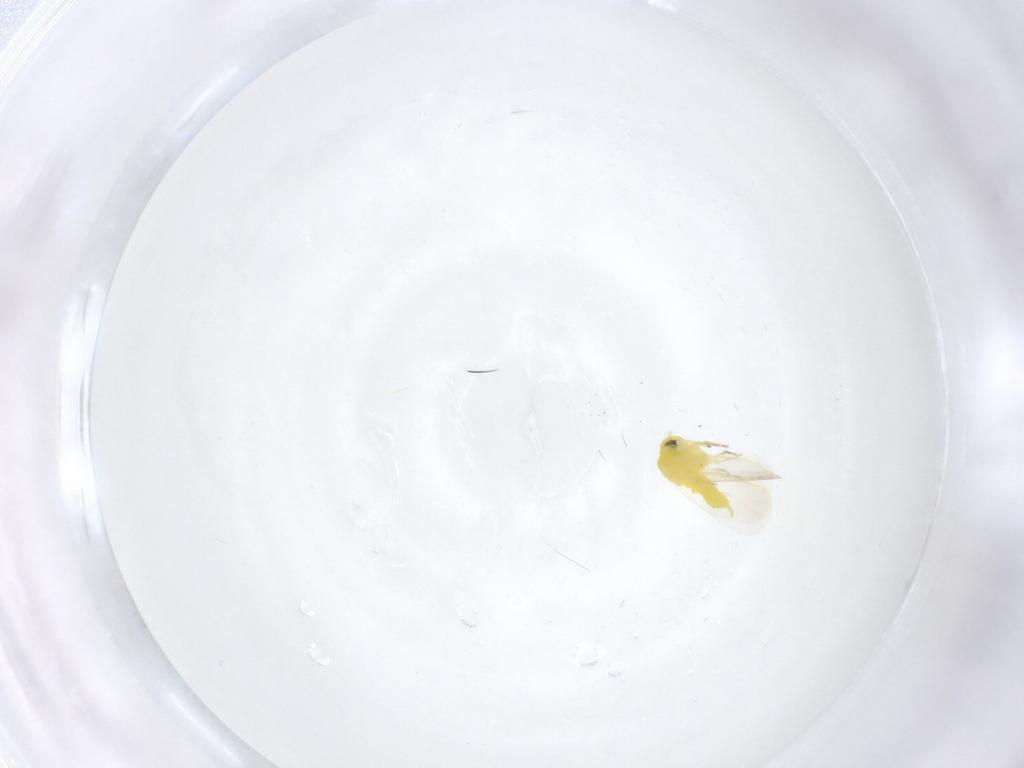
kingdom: Animalia
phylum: Arthropoda
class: Insecta
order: Hemiptera
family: Aleyrodidae
